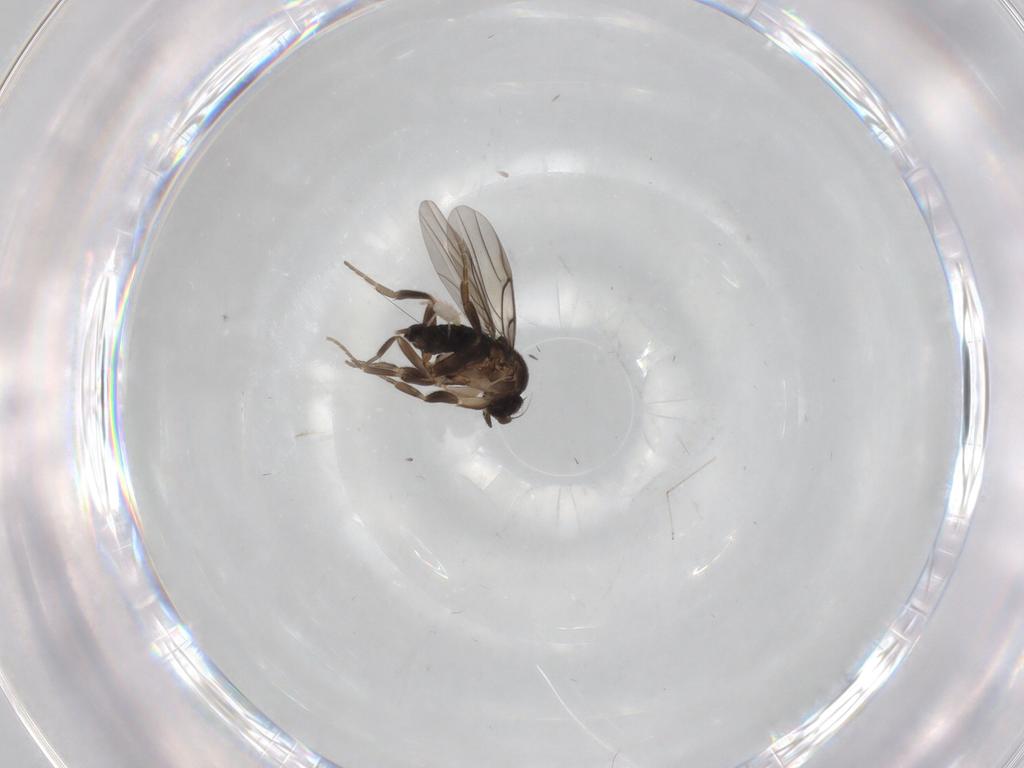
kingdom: Animalia
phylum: Arthropoda
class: Insecta
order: Diptera
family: Phoridae
